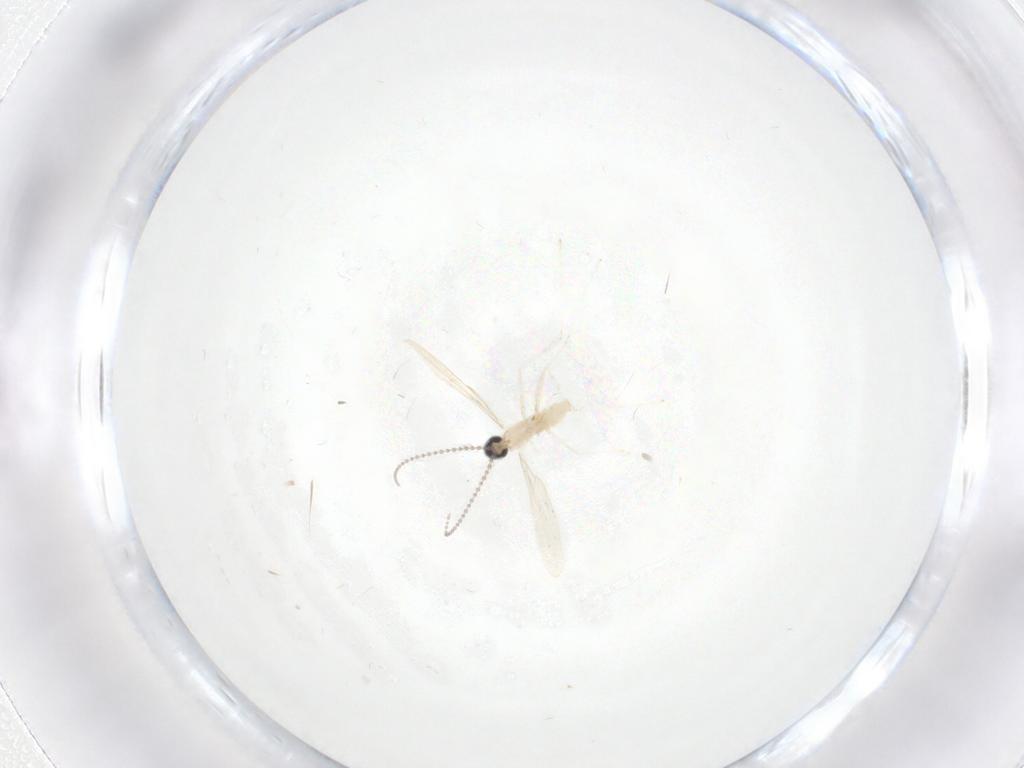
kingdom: Animalia
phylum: Arthropoda
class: Insecta
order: Diptera
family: Cecidomyiidae
